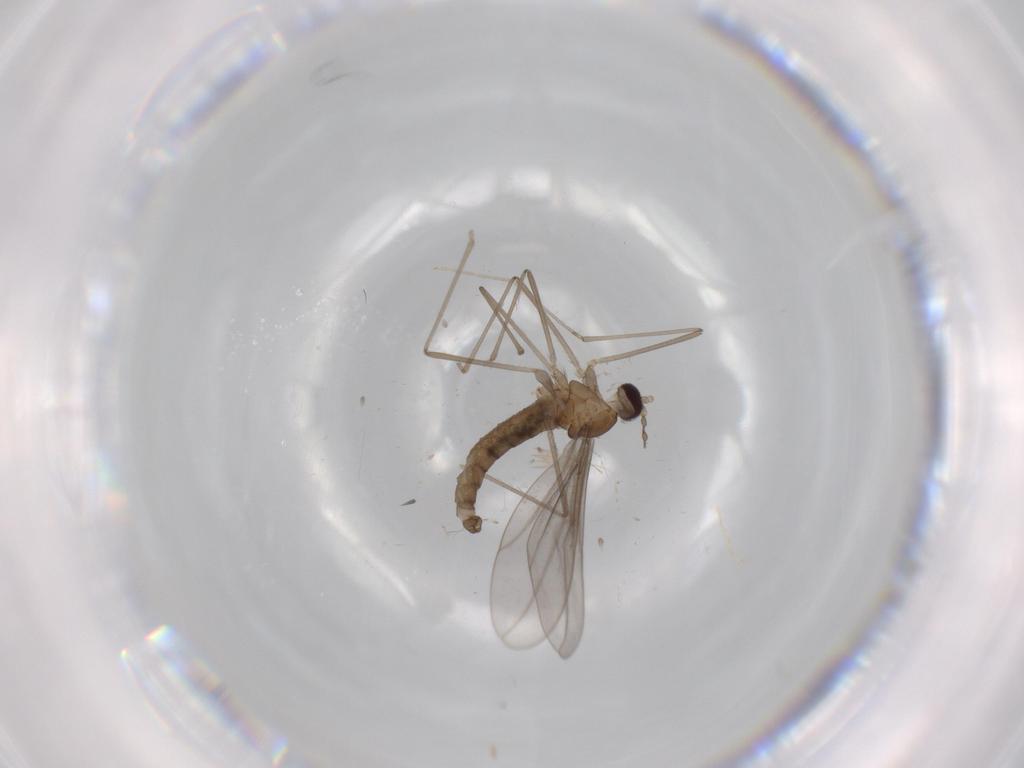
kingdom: Animalia
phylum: Arthropoda
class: Insecta
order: Diptera
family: Cecidomyiidae
